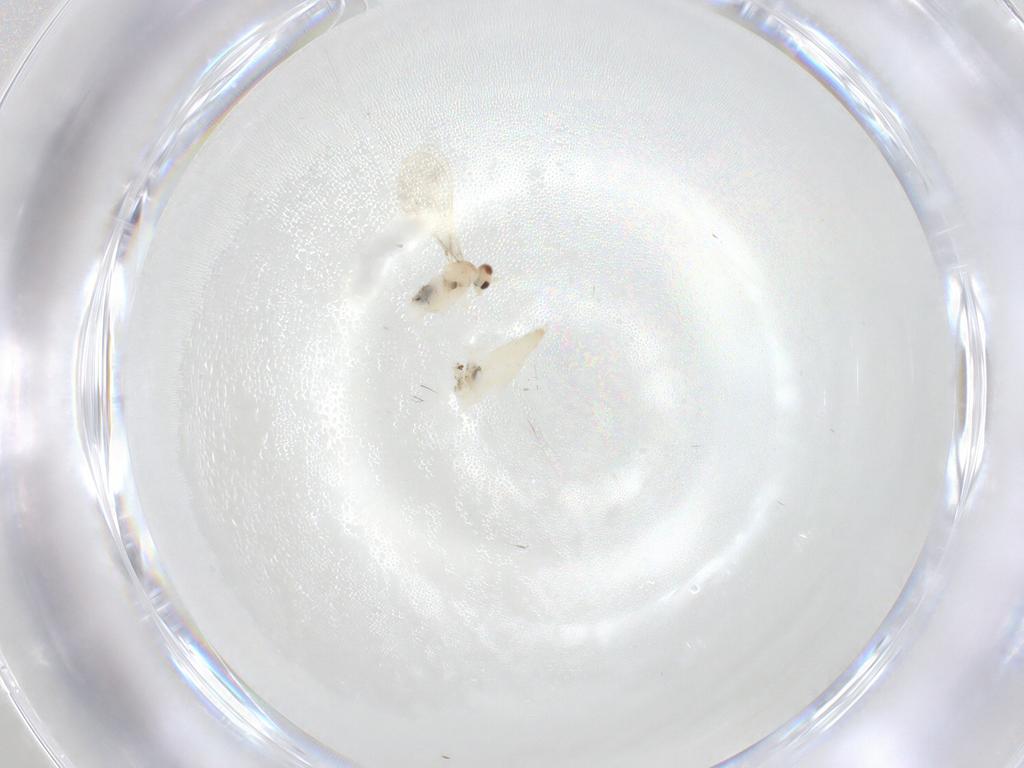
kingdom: Animalia
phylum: Arthropoda
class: Insecta
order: Diptera
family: Cecidomyiidae
